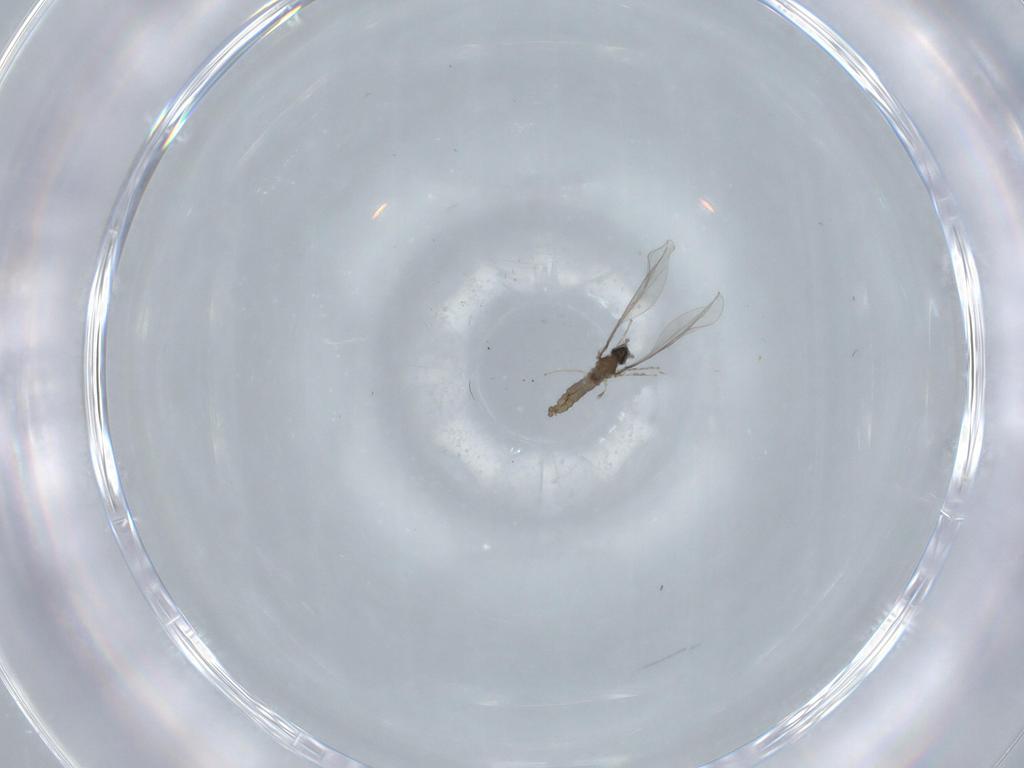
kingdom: Animalia
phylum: Arthropoda
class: Insecta
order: Diptera
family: Cecidomyiidae
